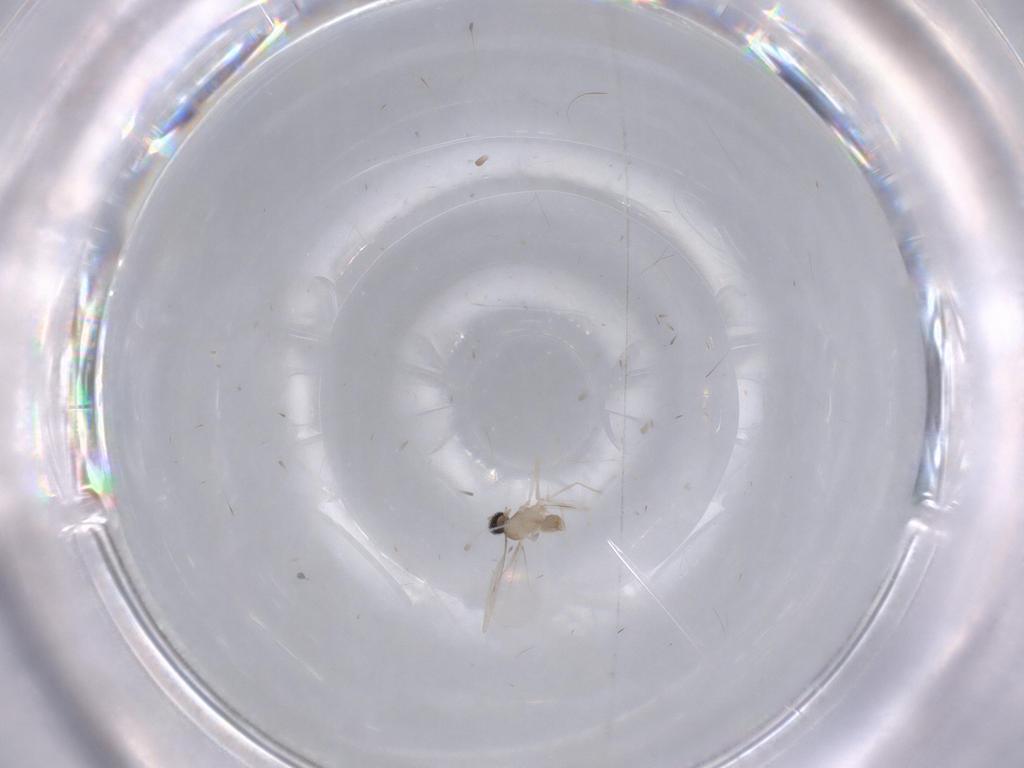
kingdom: Animalia
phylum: Arthropoda
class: Insecta
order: Diptera
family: Cecidomyiidae
